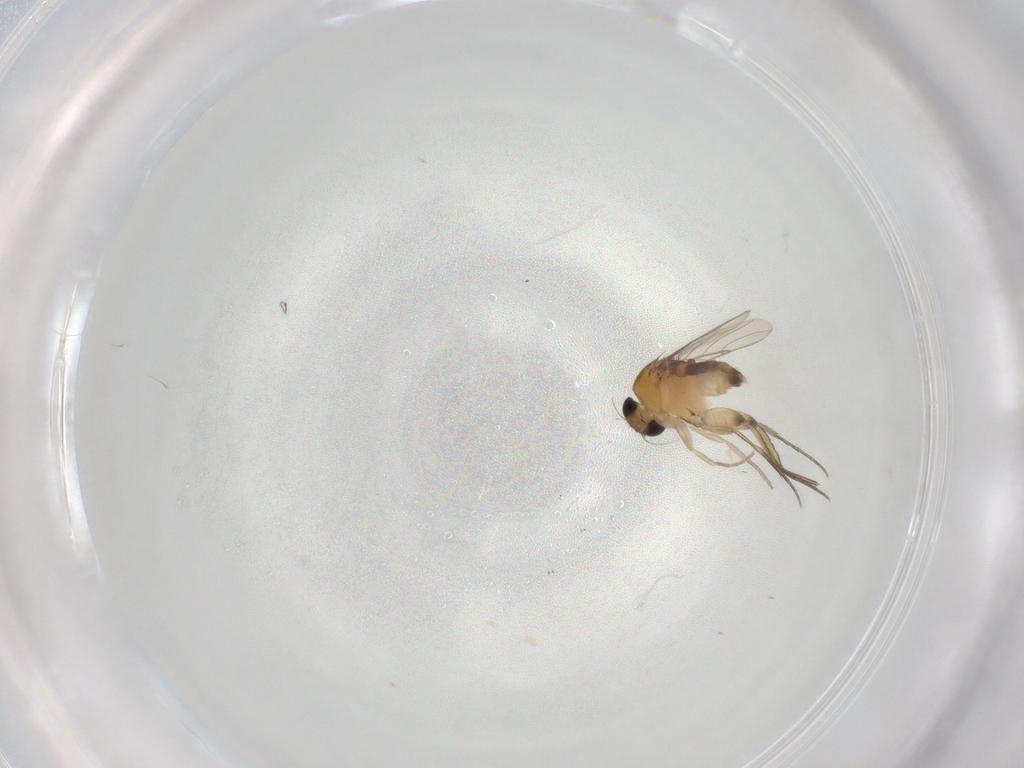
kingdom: Animalia
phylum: Arthropoda
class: Insecta
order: Diptera
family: Phoridae
